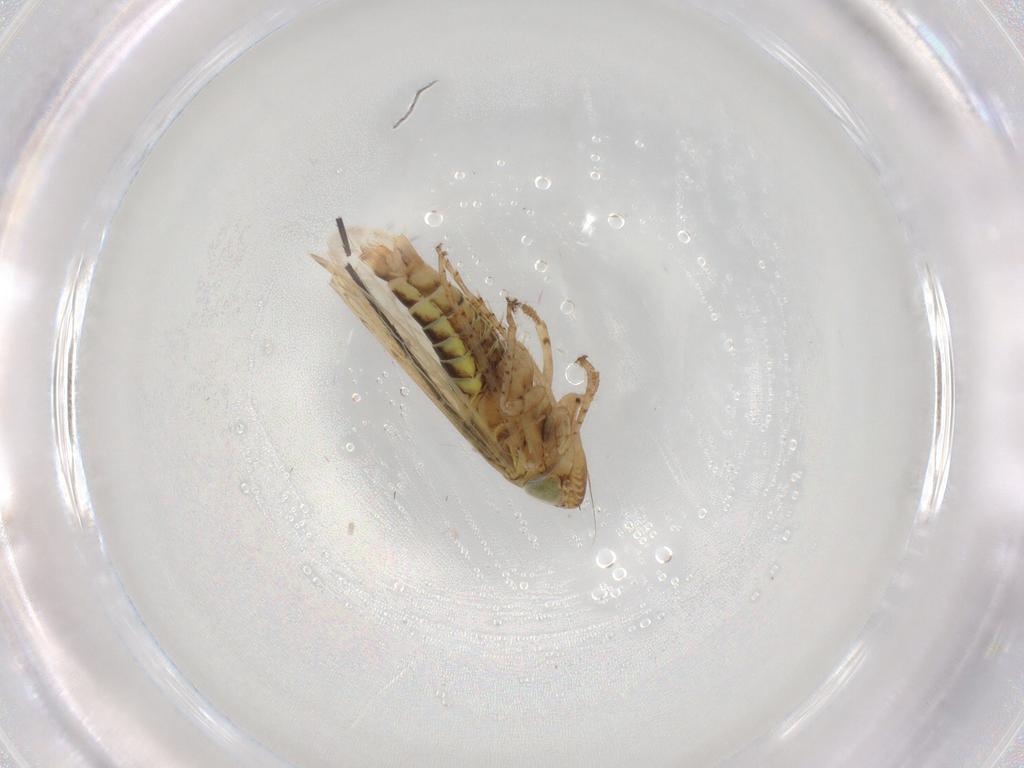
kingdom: Animalia
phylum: Arthropoda
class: Insecta
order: Hemiptera
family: Cicadellidae
